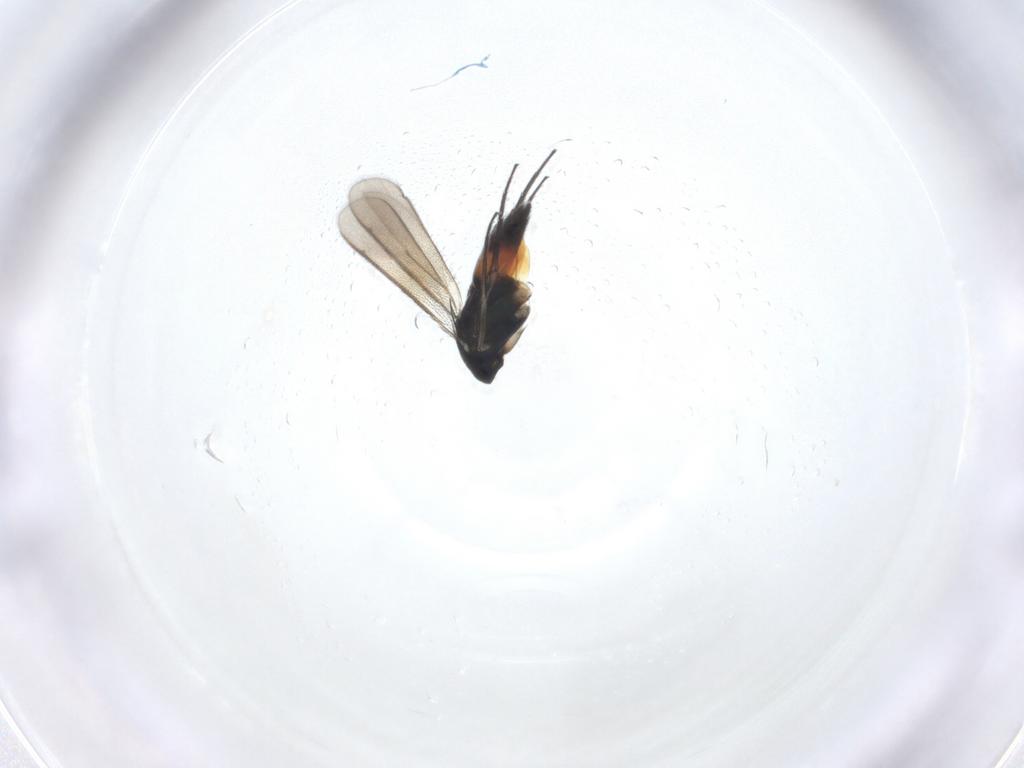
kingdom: Animalia
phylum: Arthropoda
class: Insecta
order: Hymenoptera
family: Eulophidae
